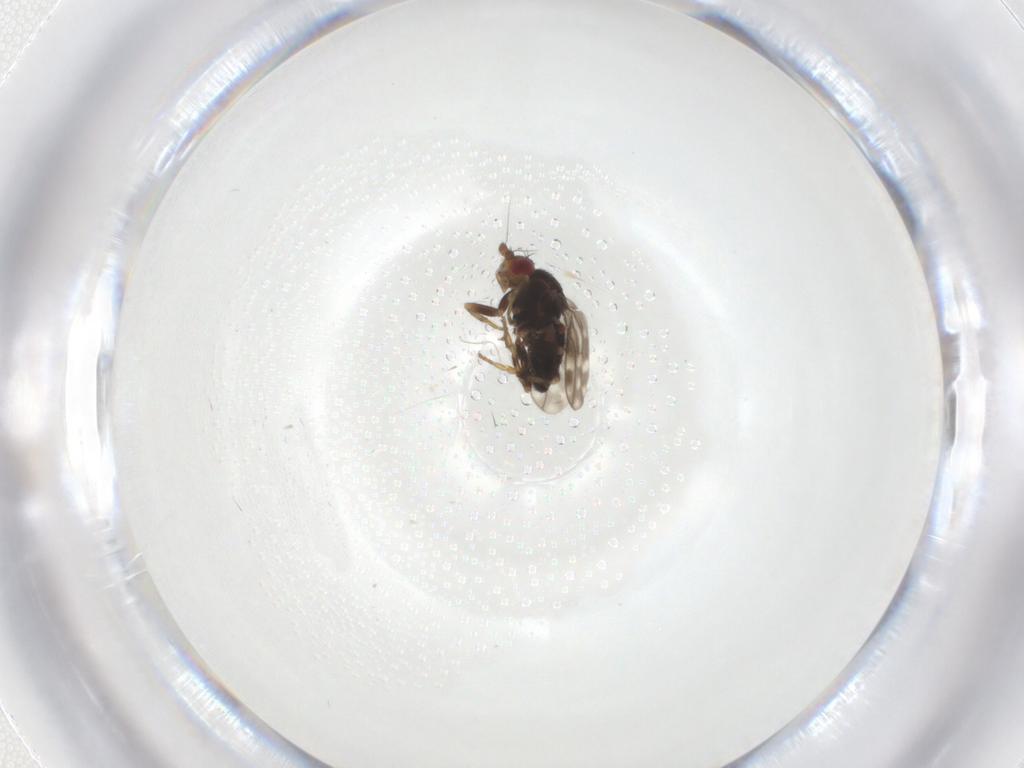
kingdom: Animalia
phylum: Arthropoda
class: Insecta
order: Diptera
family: Sphaeroceridae
